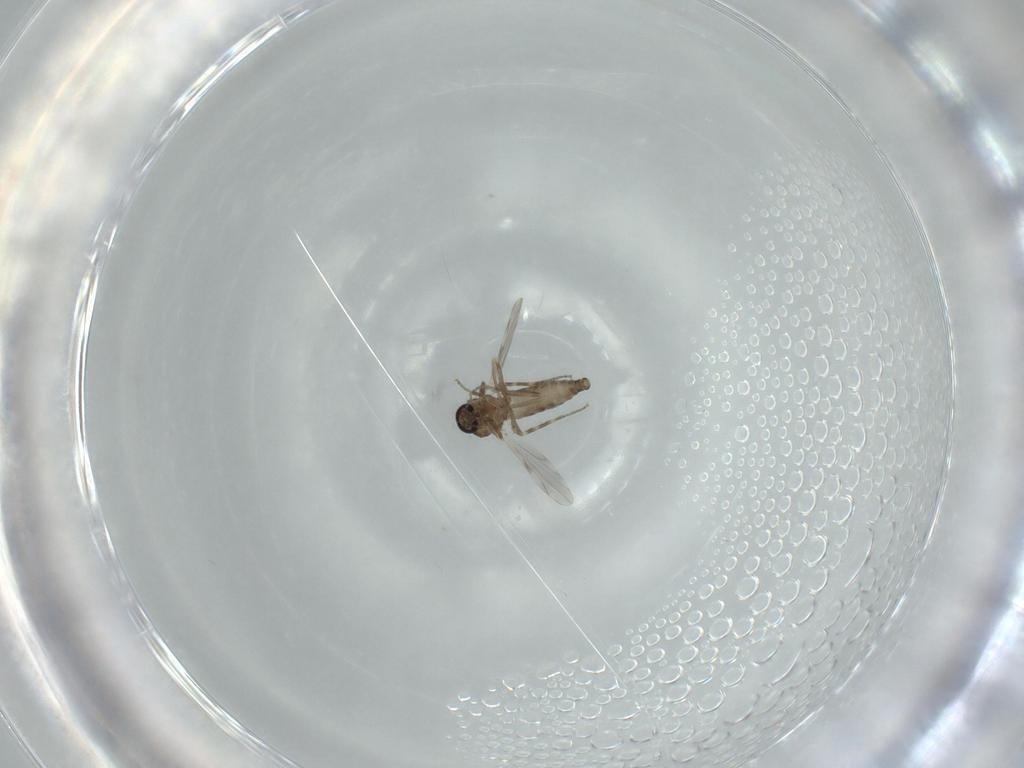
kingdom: Animalia
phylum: Arthropoda
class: Insecta
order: Diptera
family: Ceratopogonidae
